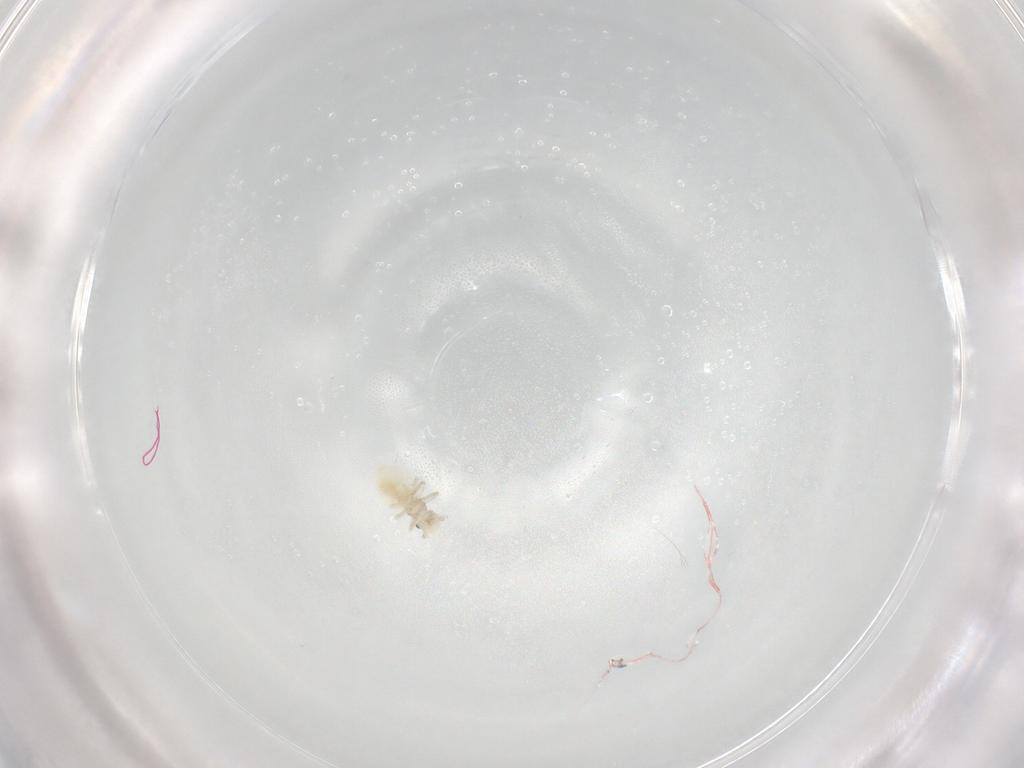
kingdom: Animalia
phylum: Arthropoda
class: Insecta
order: Psocodea
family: Caeciliusidae
